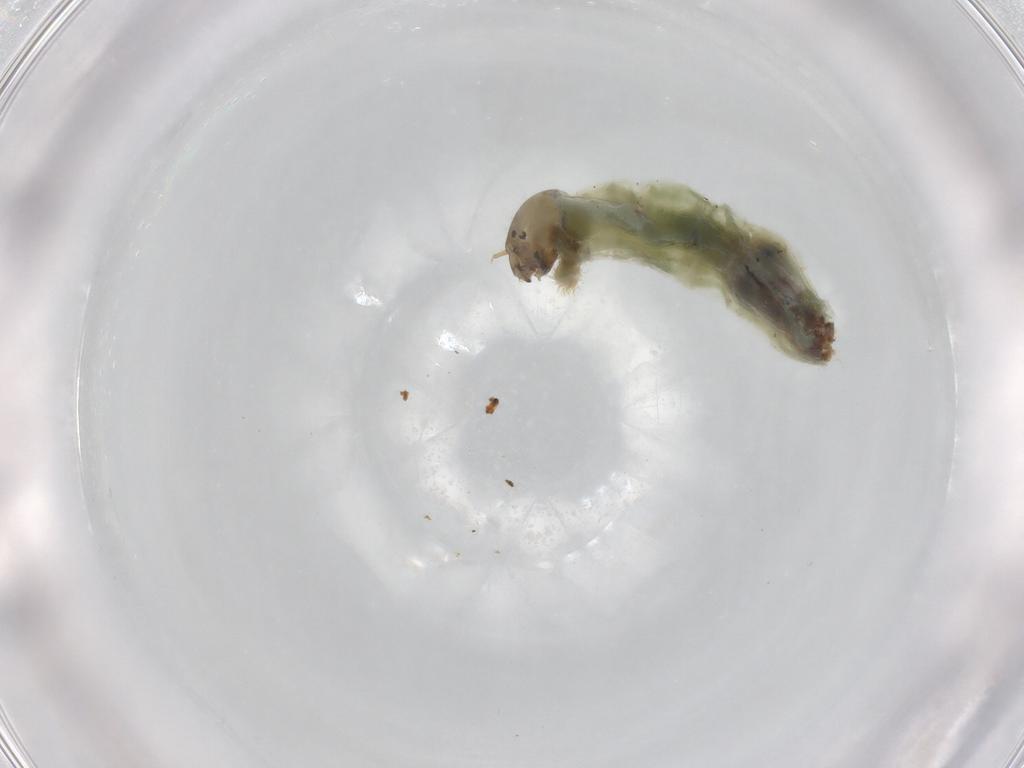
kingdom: Animalia
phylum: Arthropoda
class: Insecta
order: Diptera
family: Chironomidae
